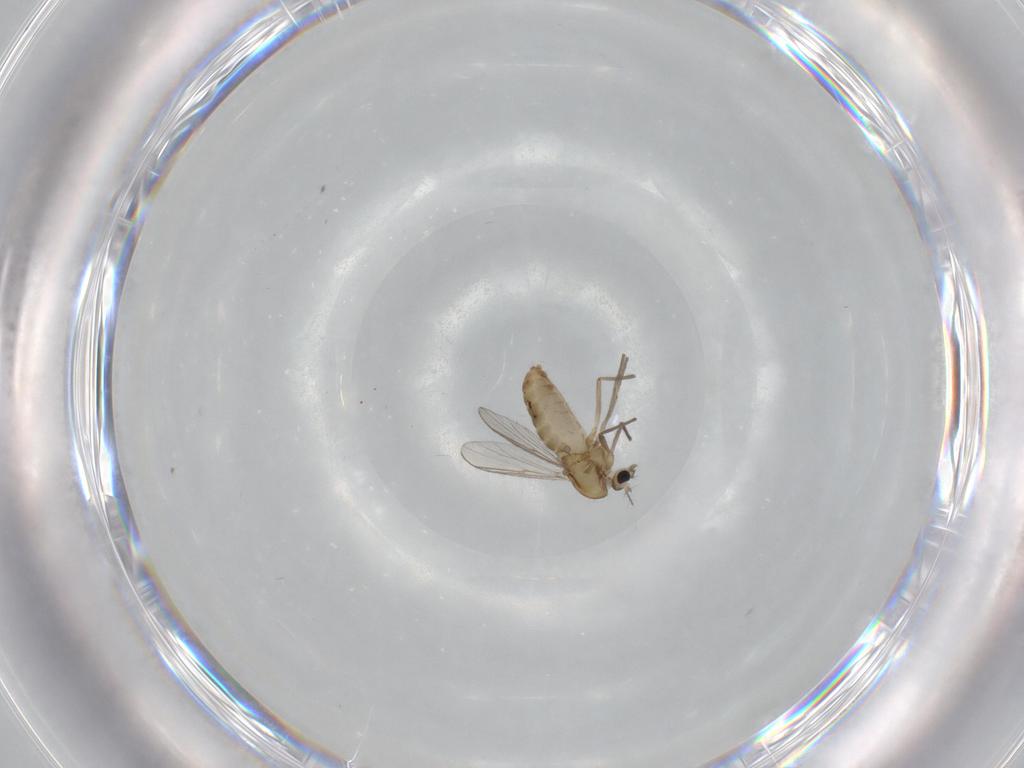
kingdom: Animalia
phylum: Arthropoda
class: Insecta
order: Diptera
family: Chironomidae
